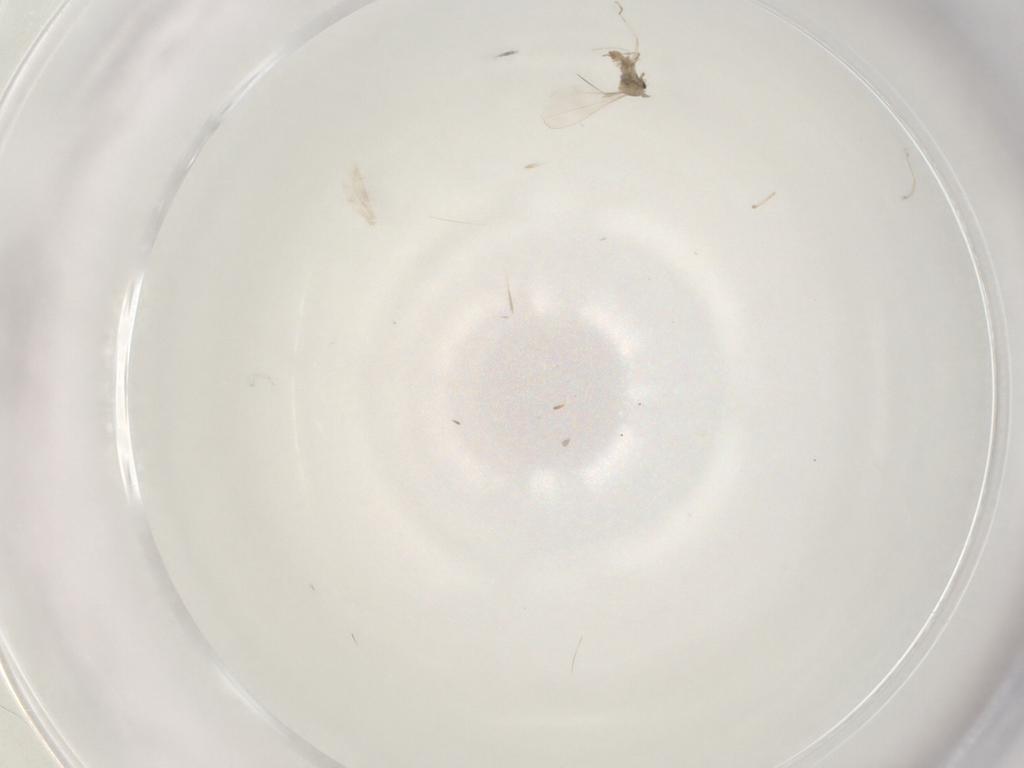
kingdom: Animalia
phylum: Arthropoda
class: Insecta
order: Diptera
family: Cecidomyiidae
